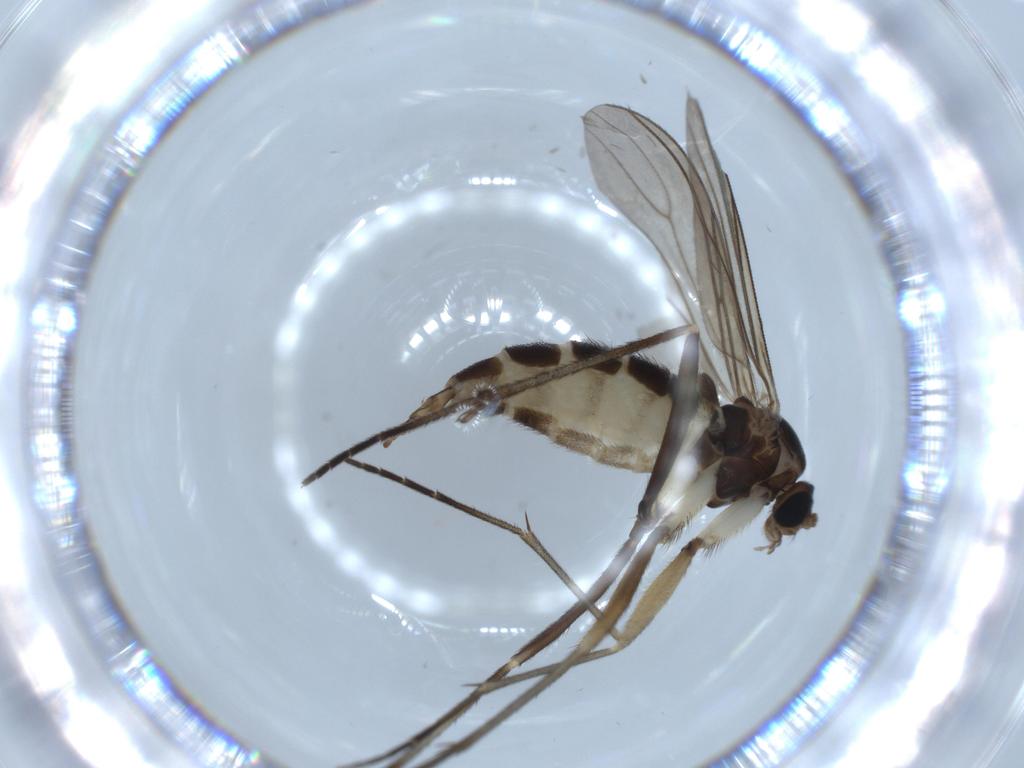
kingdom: Animalia
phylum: Arthropoda
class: Insecta
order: Diptera
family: Sciaridae
